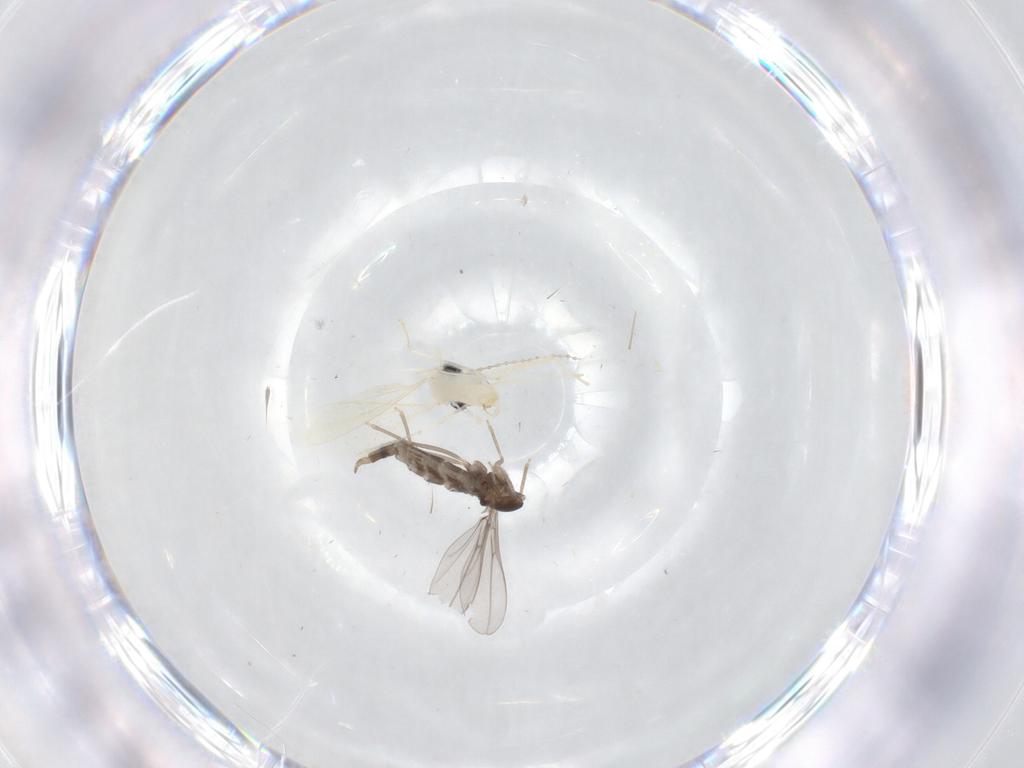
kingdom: Animalia
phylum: Arthropoda
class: Insecta
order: Diptera
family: Cecidomyiidae
